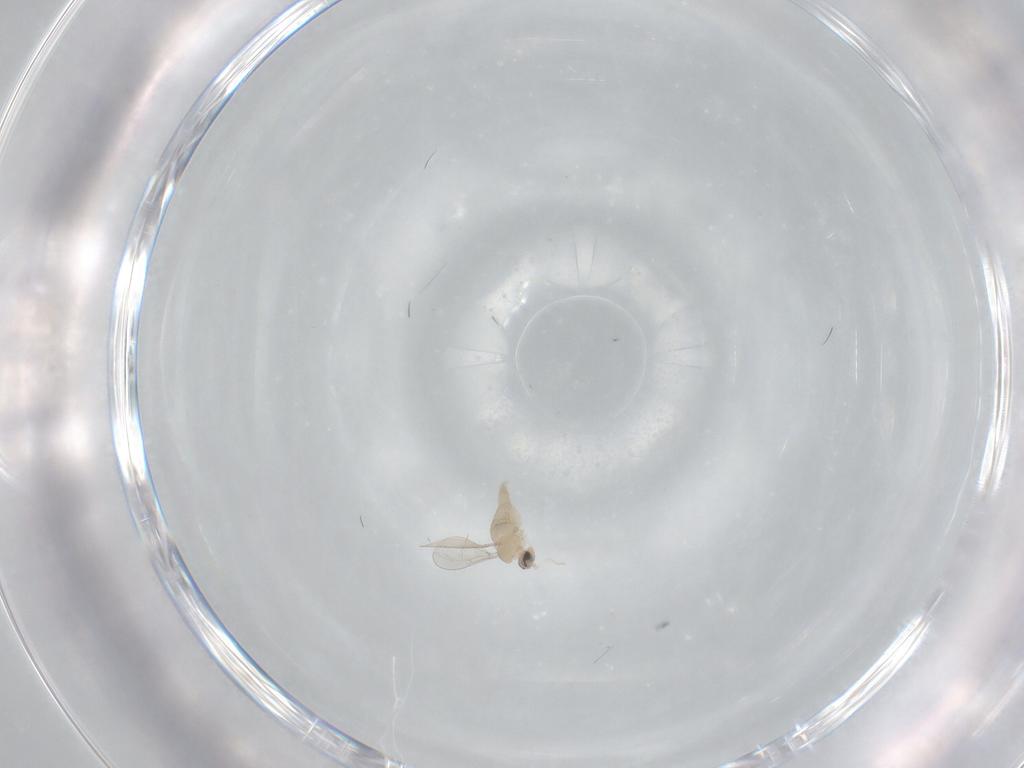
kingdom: Animalia
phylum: Arthropoda
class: Insecta
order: Diptera
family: Cecidomyiidae
